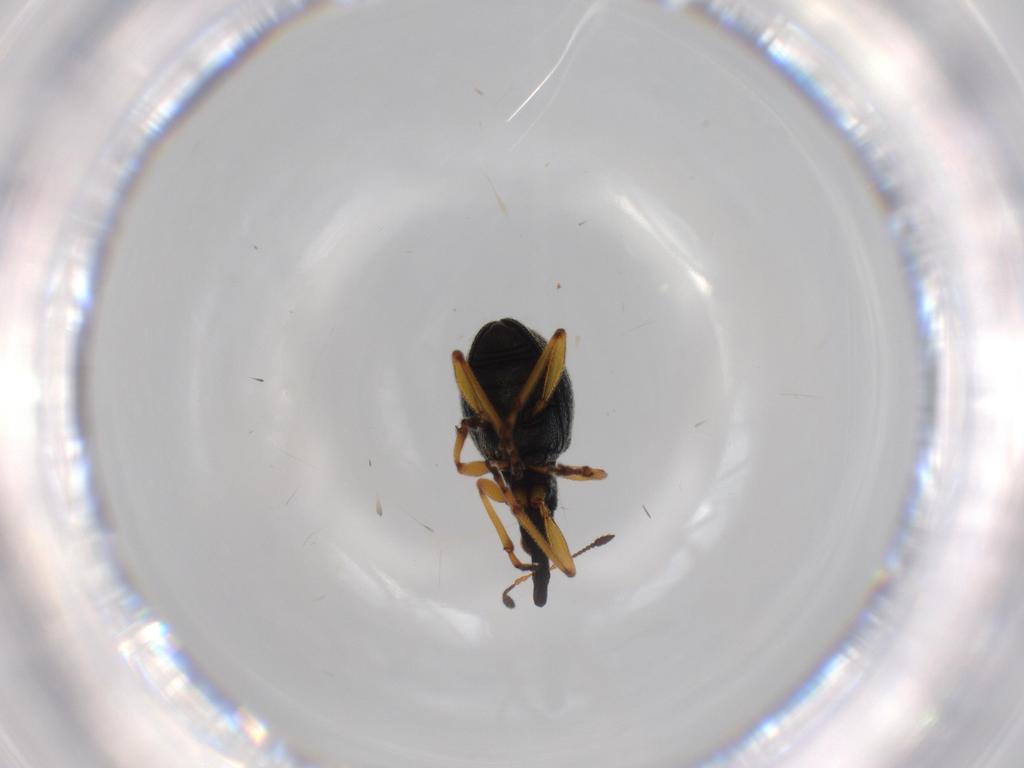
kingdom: Animalia
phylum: Arthropoda
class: Insecta
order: Coleoptera
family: Brentidae
